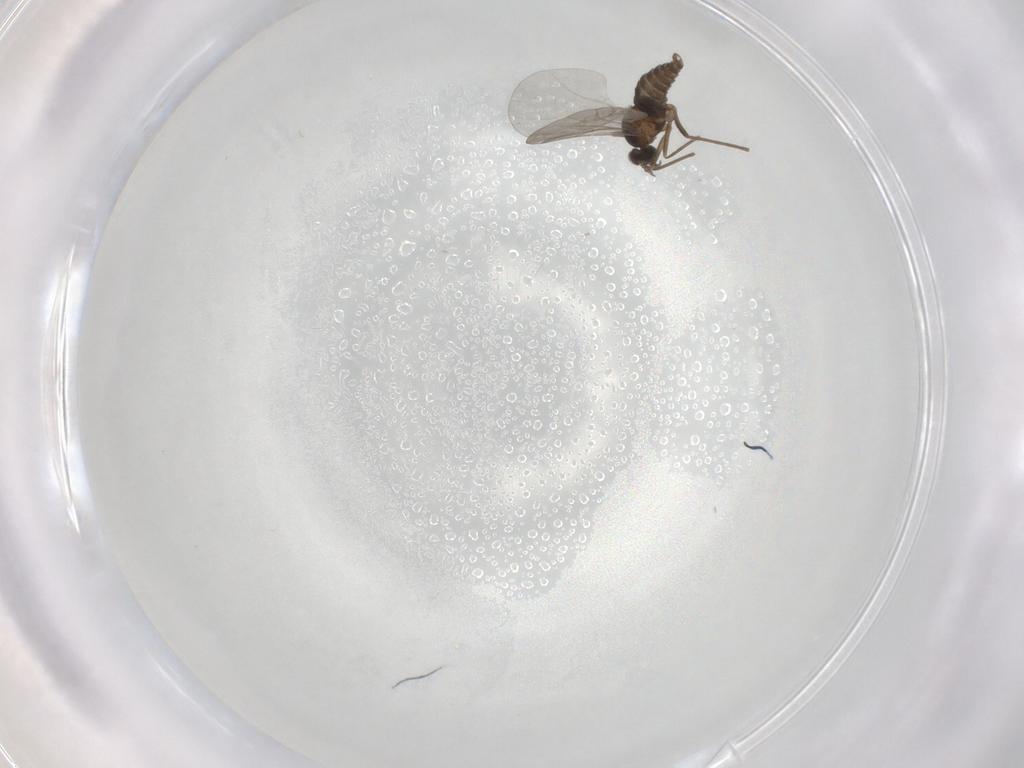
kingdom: Animalia
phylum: Arthropoda
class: Insecta
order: Diptera
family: Cecidomyiidae
